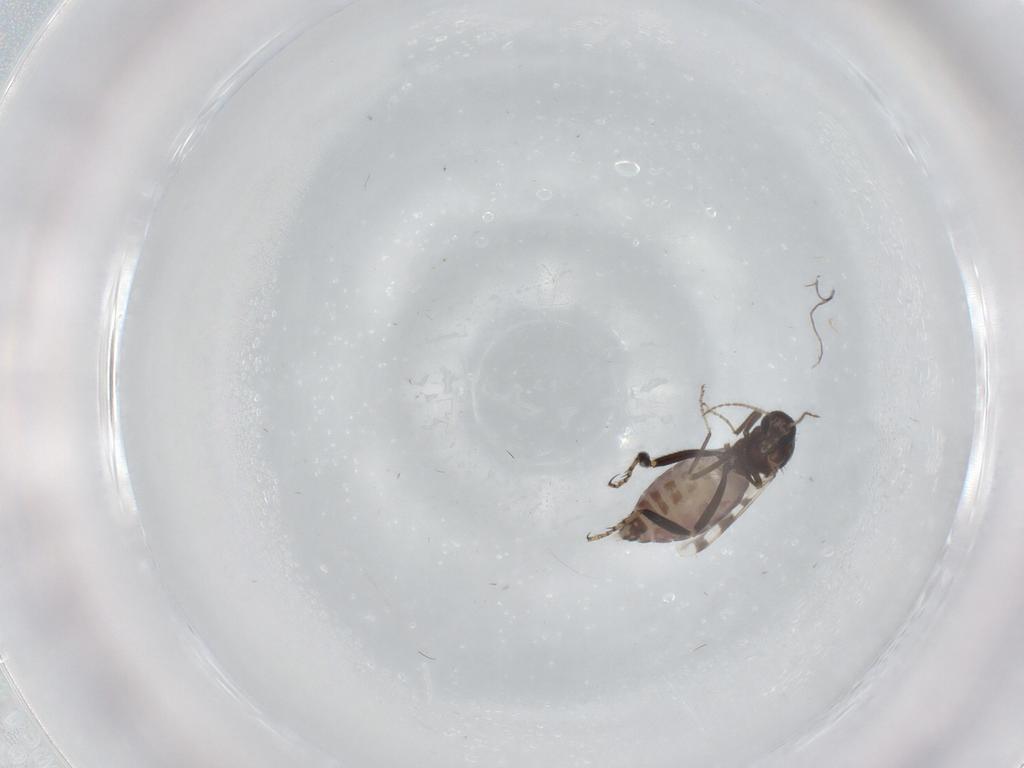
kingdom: Animalia
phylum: Arthropoda
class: Insecta
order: Diptera
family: Ceratopogonidae
